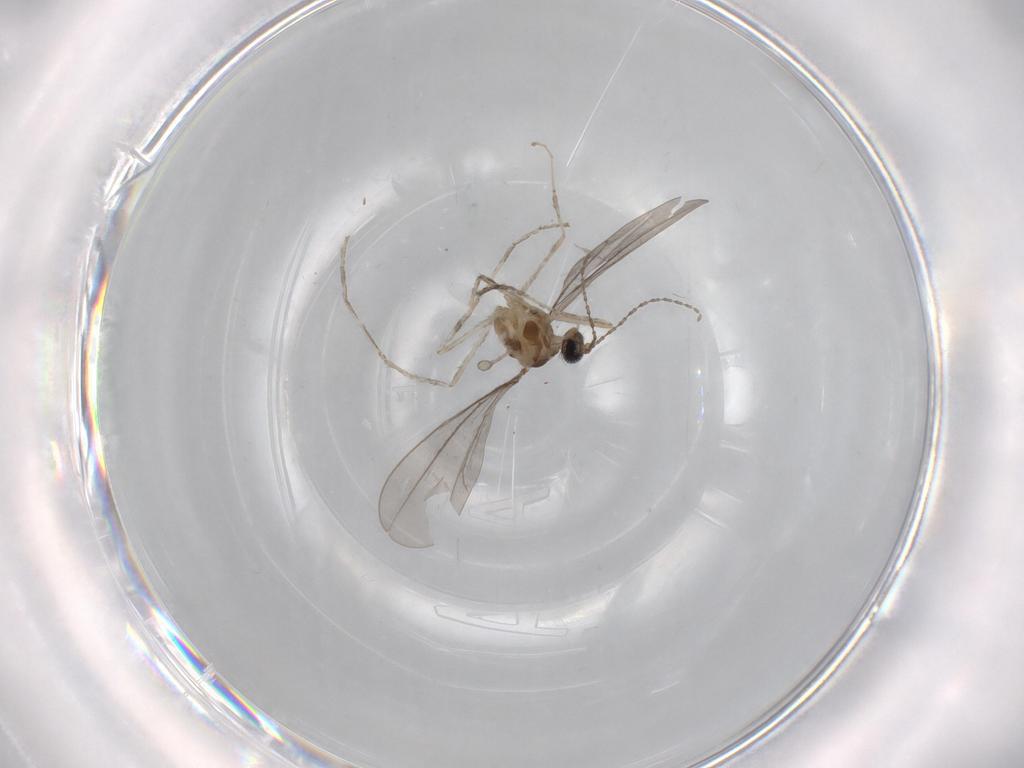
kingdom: Animalia
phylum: Arthropoda
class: Insecta
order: Diptera
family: Cecidomyiidae
